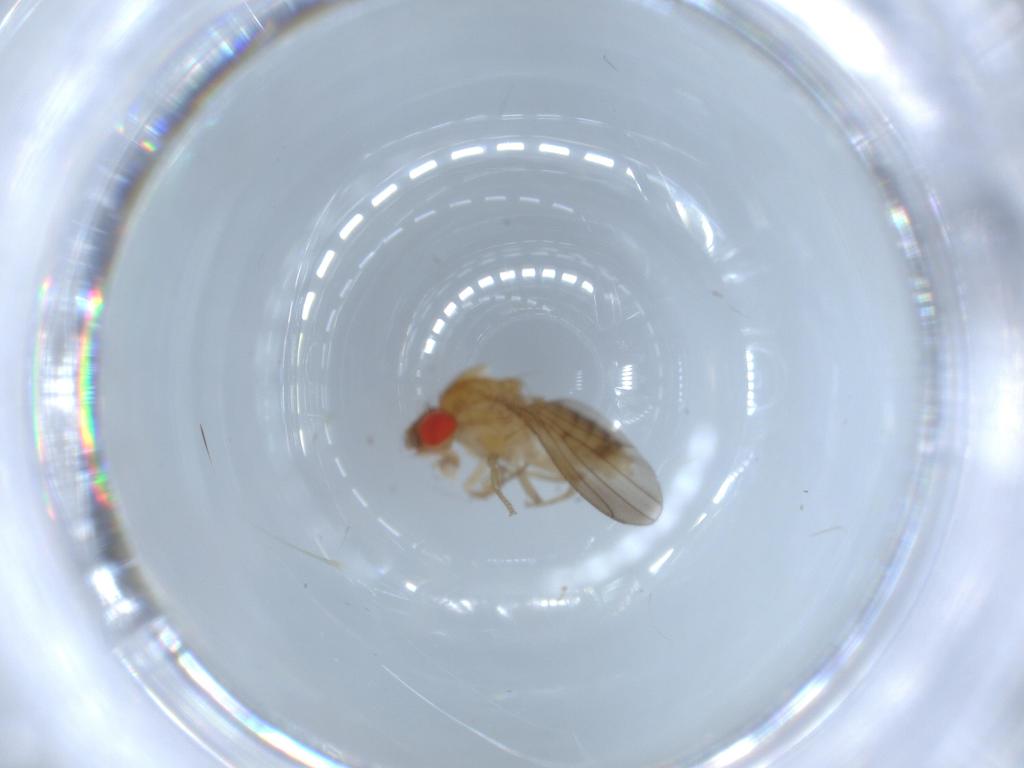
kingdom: Animalia
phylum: Arthropoda
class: Insecta
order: Diptera
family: Drosophilidae
